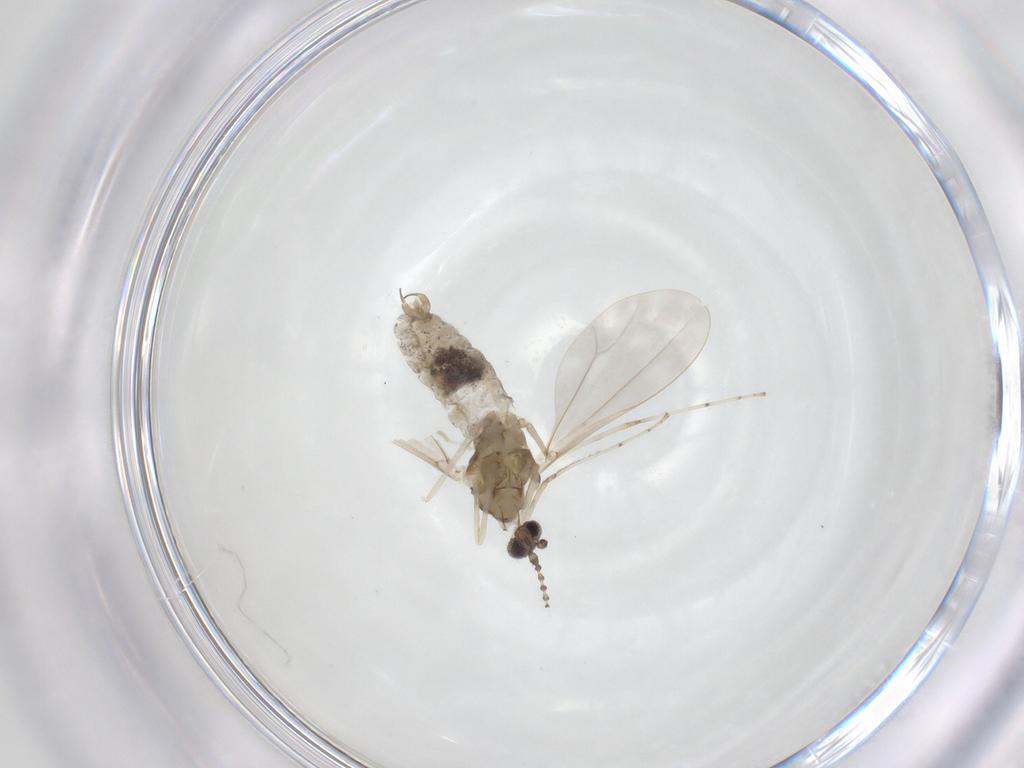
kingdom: Animalia
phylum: Arthropoda
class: Insecta
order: Diptera
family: Cecidomyiidae
